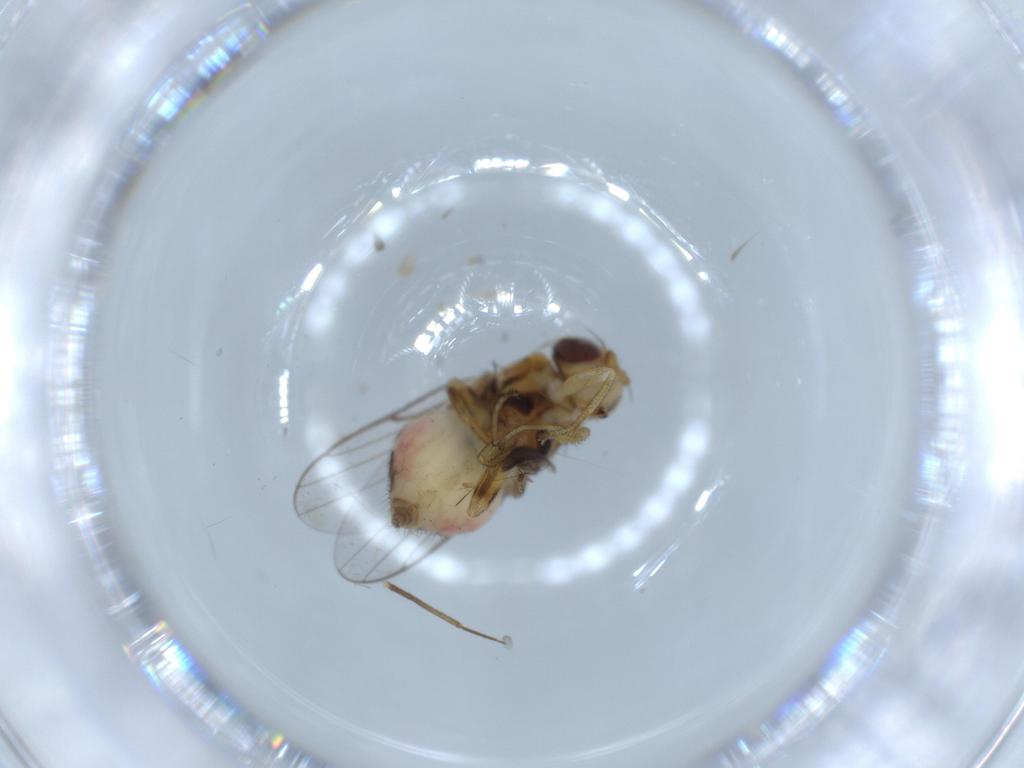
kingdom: Animalia
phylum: Arthropoda
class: Insecta
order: Diptera
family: Chloropidae
